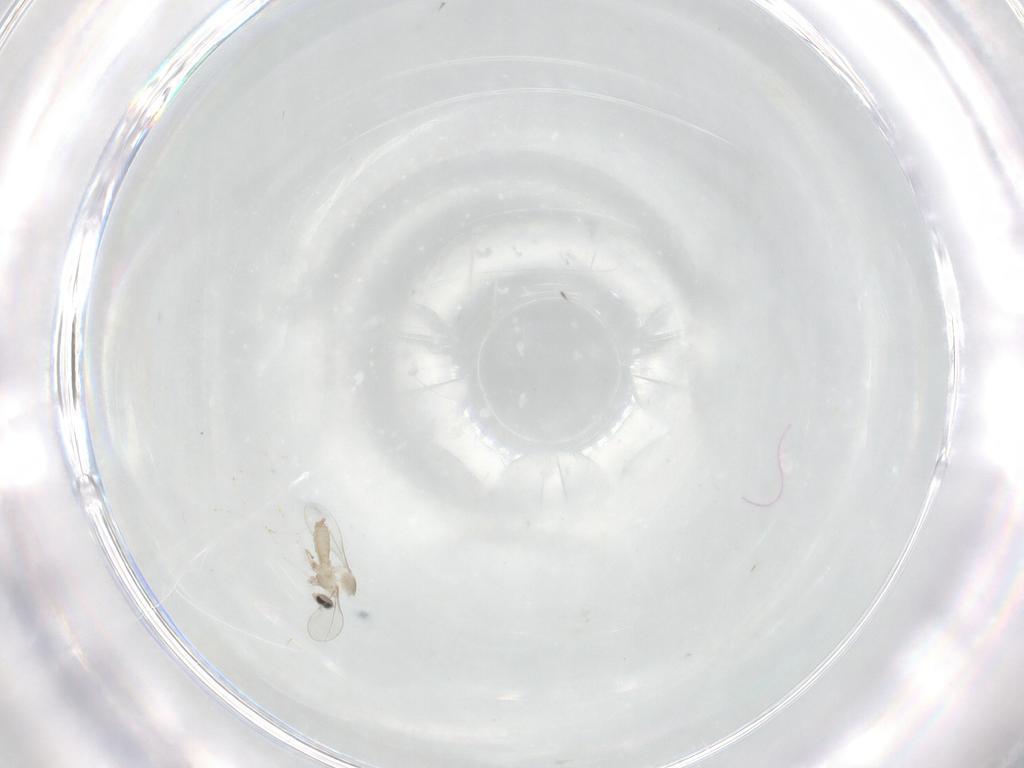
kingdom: Animalia
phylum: Arthropoda
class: Insecta
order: Diptera
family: Cecidomyiidae
